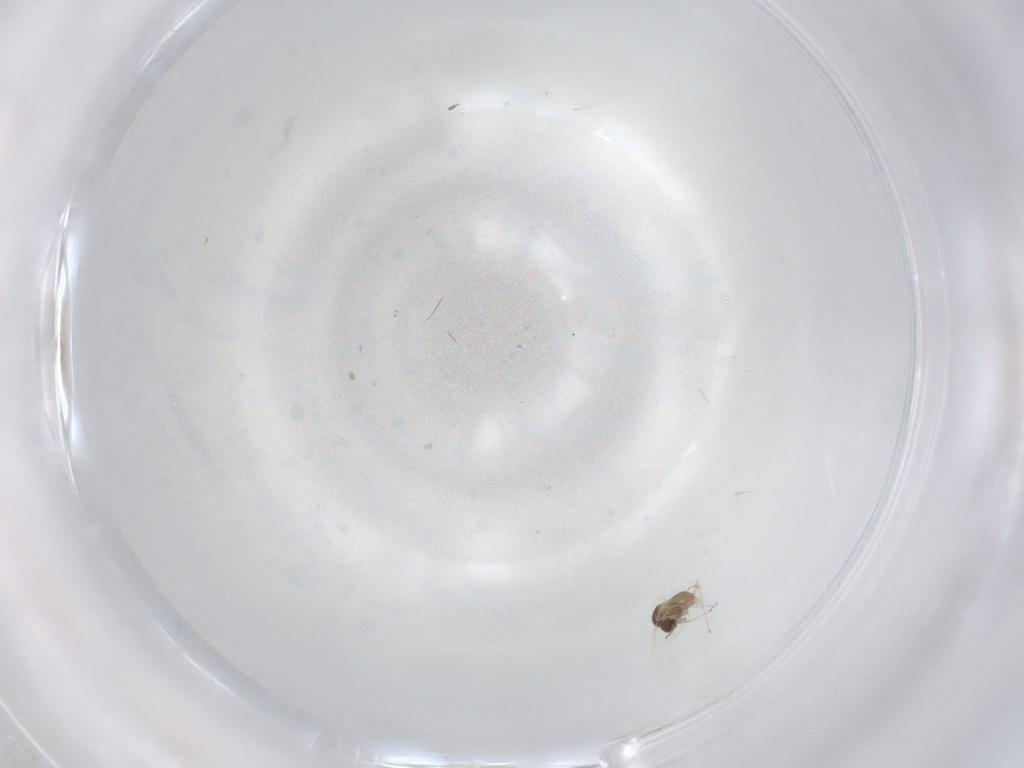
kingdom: Animalia
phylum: Arthropoda
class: Insecta
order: Diptera
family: Cecidomyiidae
